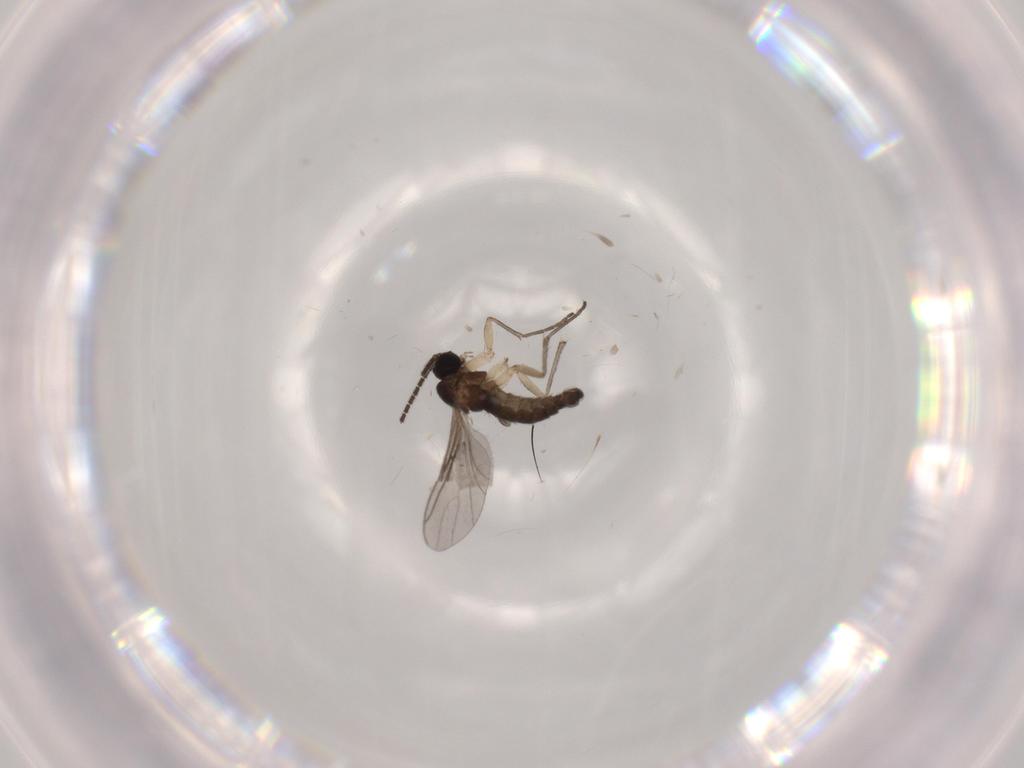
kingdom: Animalia
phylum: Arthropoda
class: Insecta
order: Diptera
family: Sciaridae
